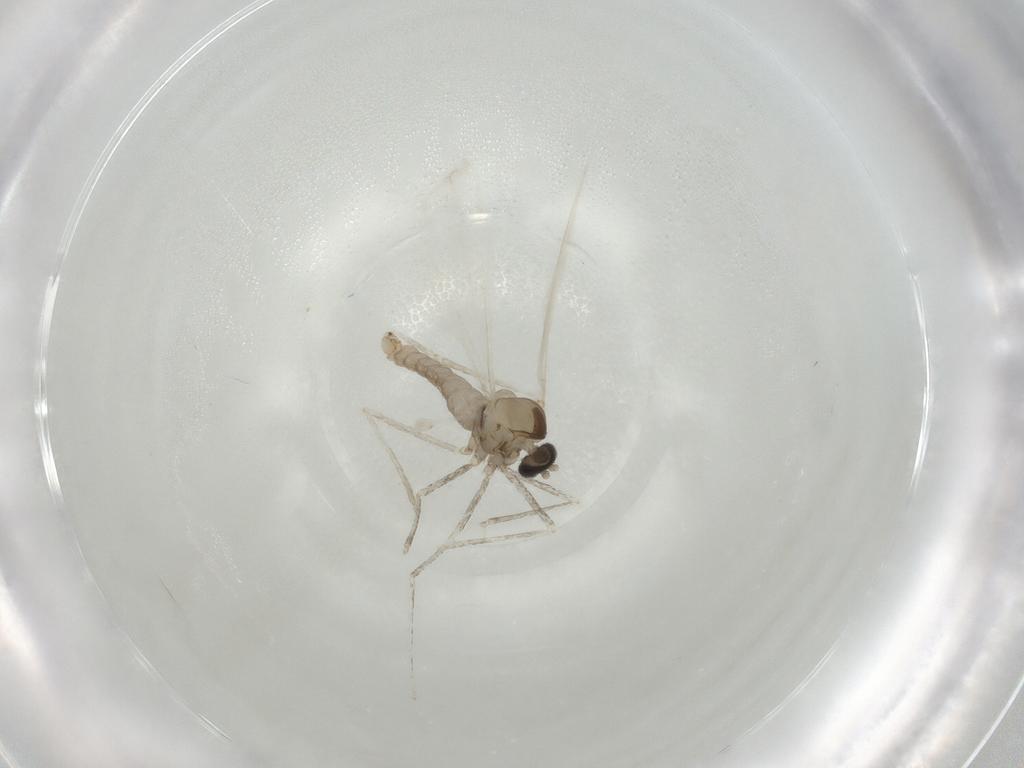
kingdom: Animalia
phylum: Arthropoda
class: Insecta
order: Diptera
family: Cecidomyiidae
